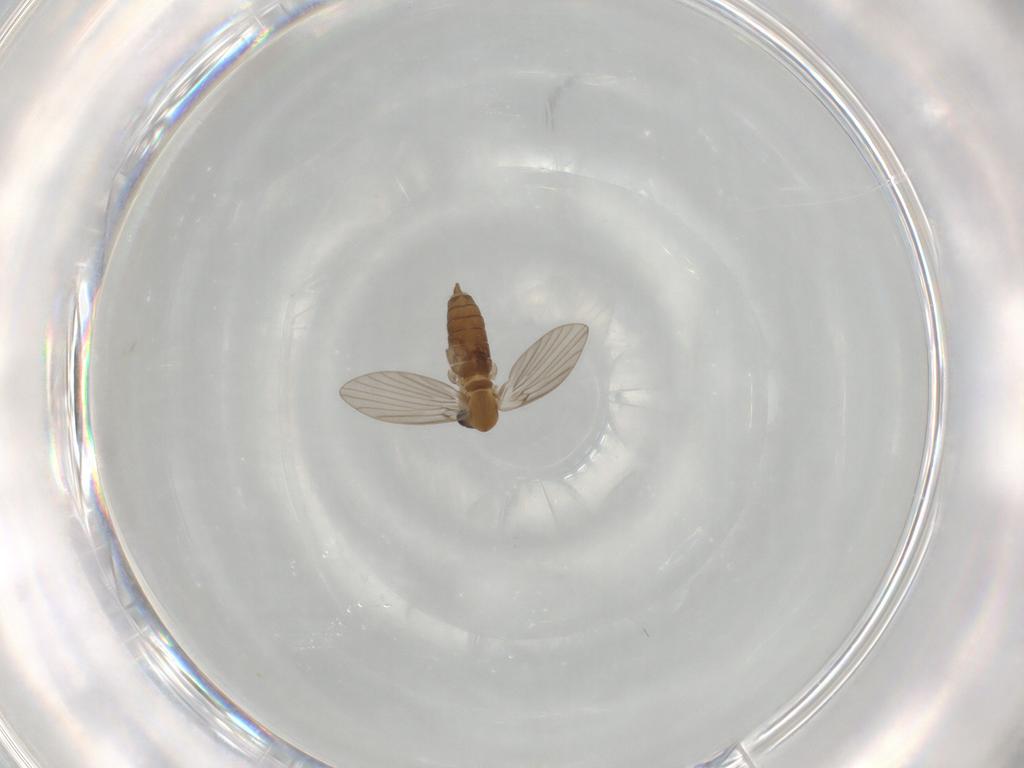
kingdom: Animalia
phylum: Arthropoda
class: Insecta
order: Diptera
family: Psychodidae
